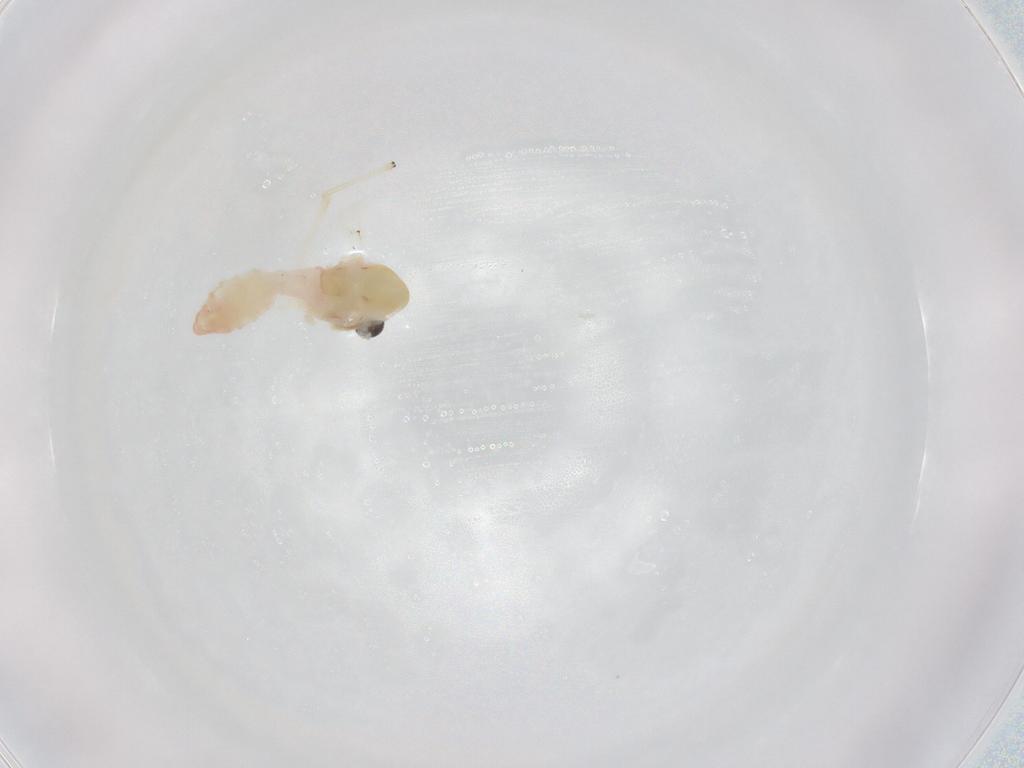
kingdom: Animalia
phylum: Arthropoda
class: Insecta
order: Diptera
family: Chironomidae
